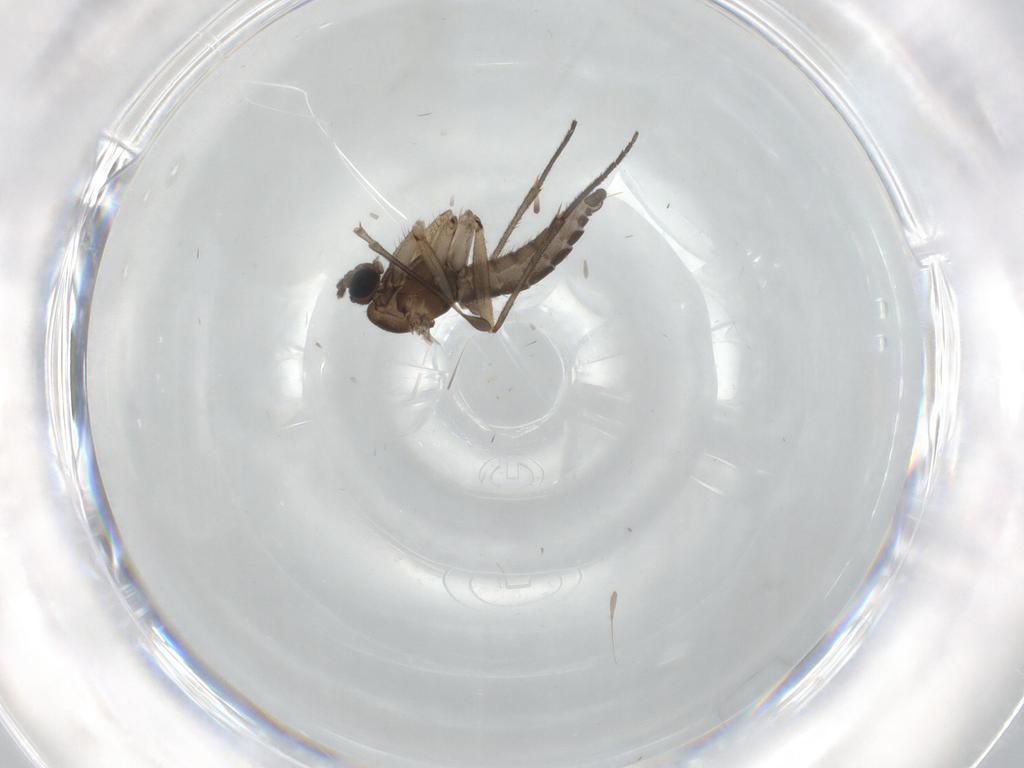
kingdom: Animalia
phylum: Arthropoda
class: Insecta
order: Diptera
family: Sciaridae
